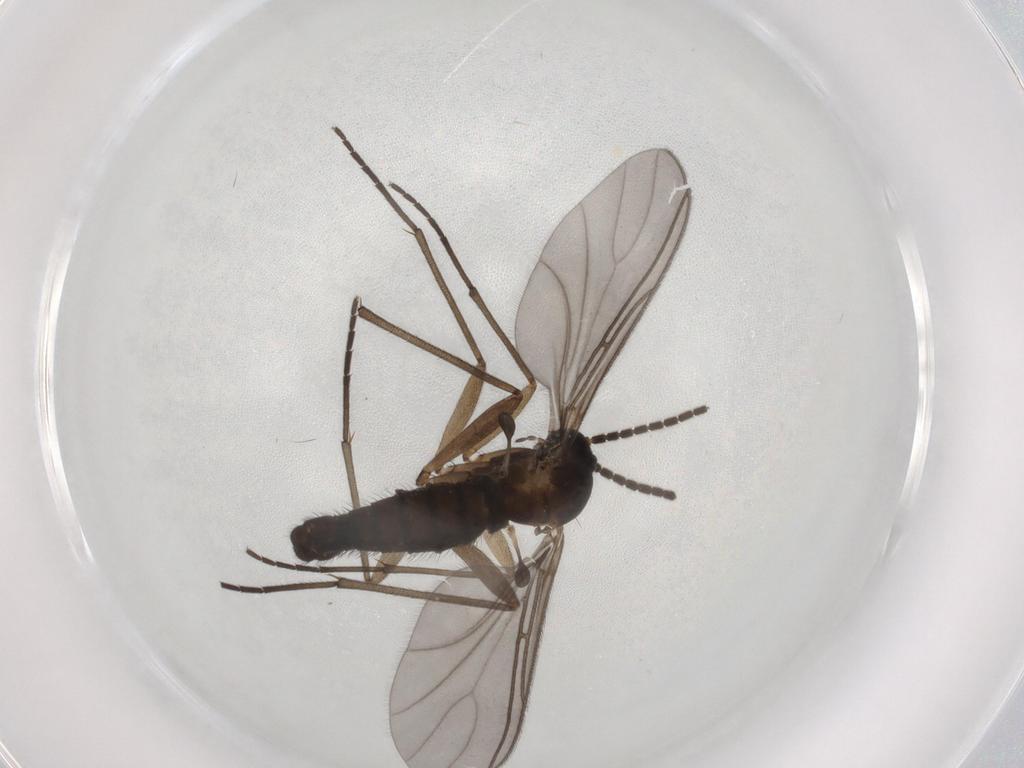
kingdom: Animalia
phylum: Arthropoda
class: Insecta
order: Diptera
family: Sciaridae
